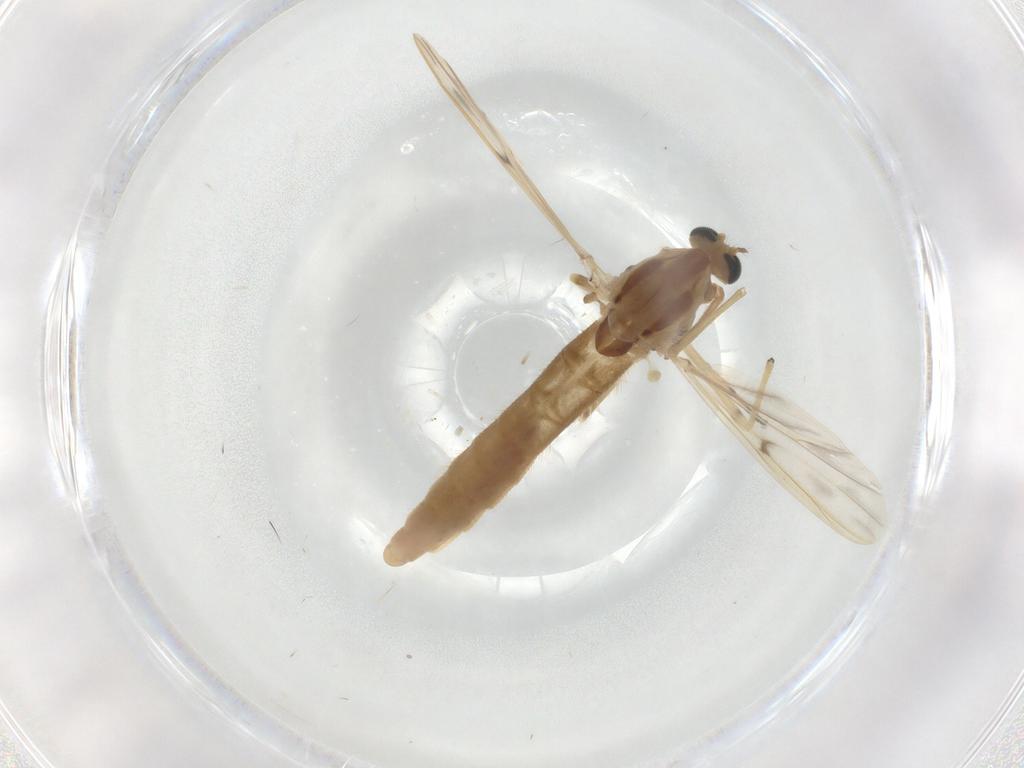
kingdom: Animalia
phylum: Arthropoda
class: Insecta
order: Diptera
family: Chironomidae
